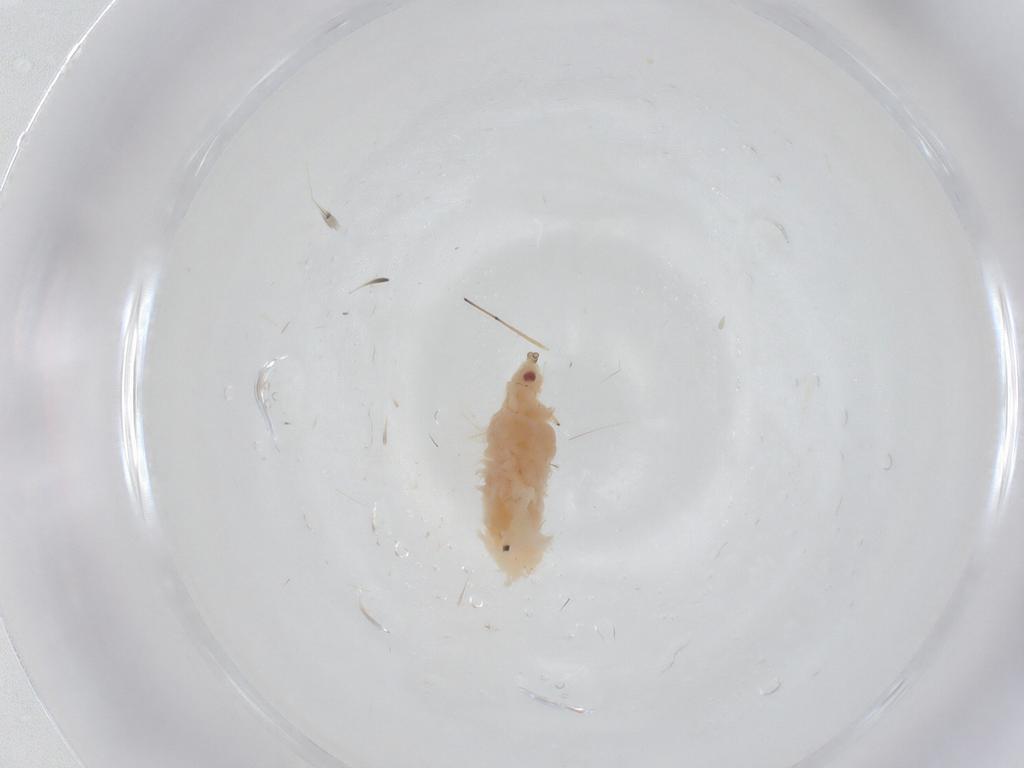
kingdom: Animalia
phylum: Arthropoda
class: Insecta
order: Hemiptera
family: Aphididae
